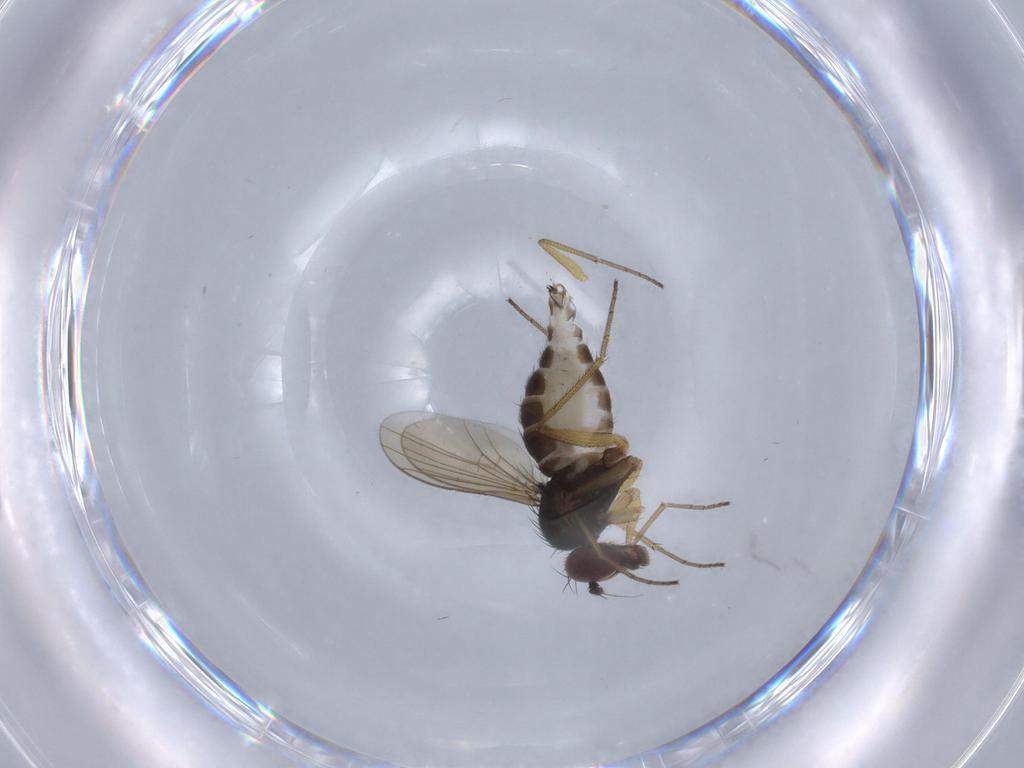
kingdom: Animalia
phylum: Arthropoda
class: Insecta
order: Diptera
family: Dolichopodidae
